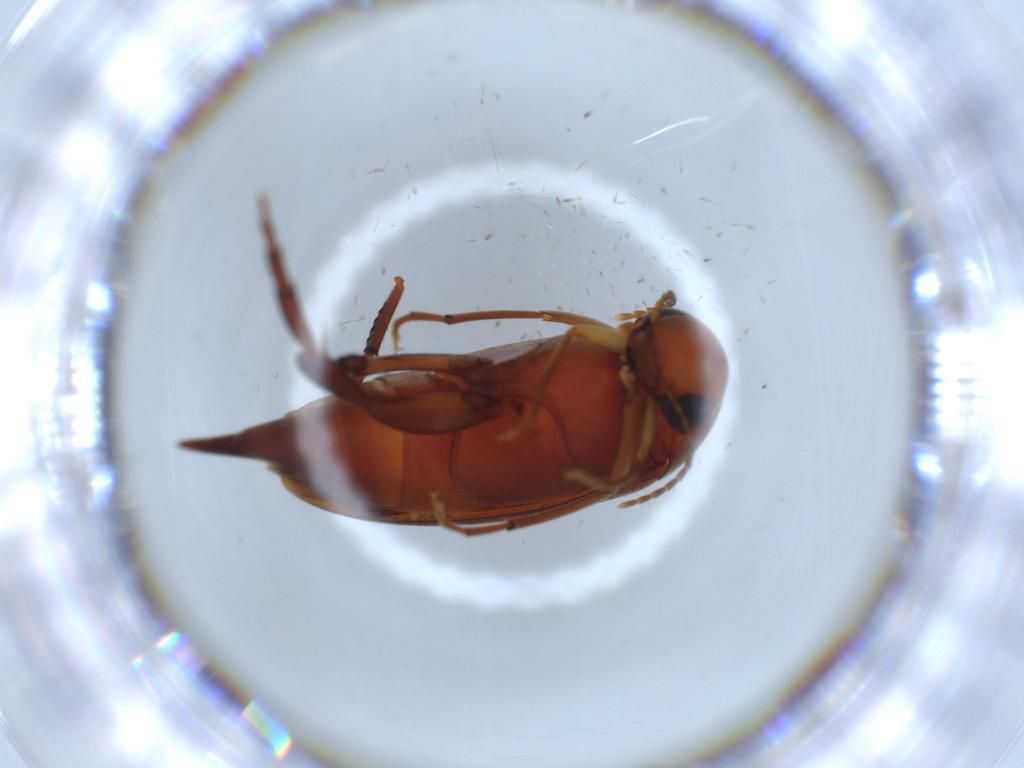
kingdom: Animalia
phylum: Arthropoda
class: Insecta
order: Coleoptera
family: Mordellidae
